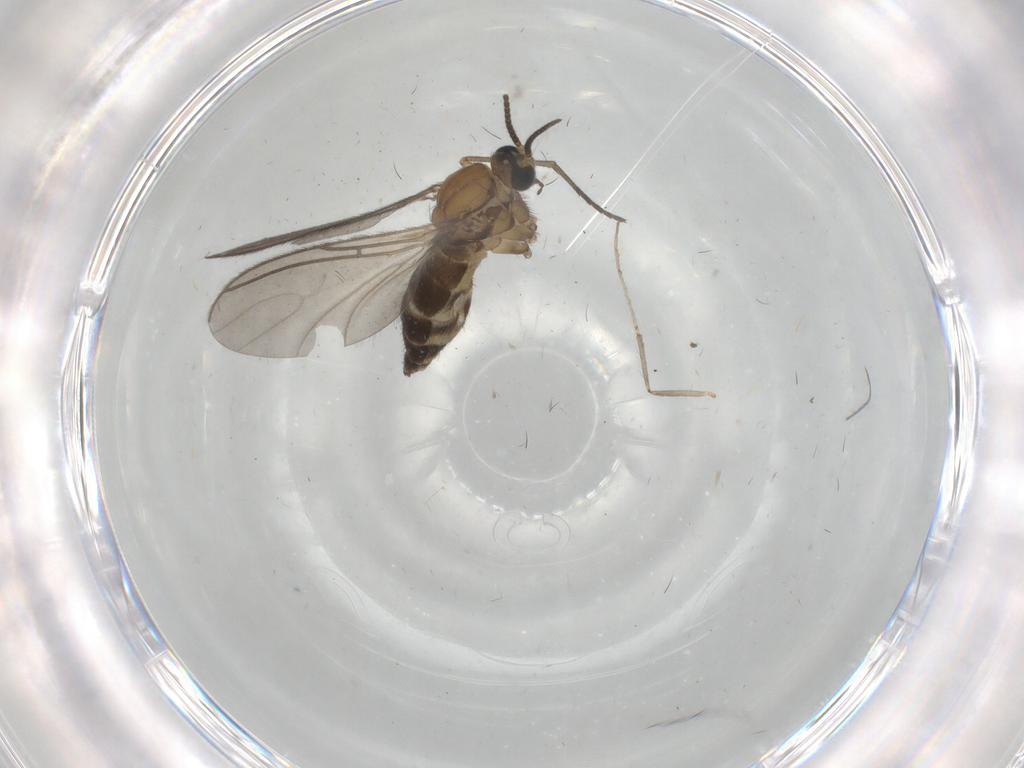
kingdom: Animalia
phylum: Arthropoda
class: Insecta
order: Diptera
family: Sciaridae
